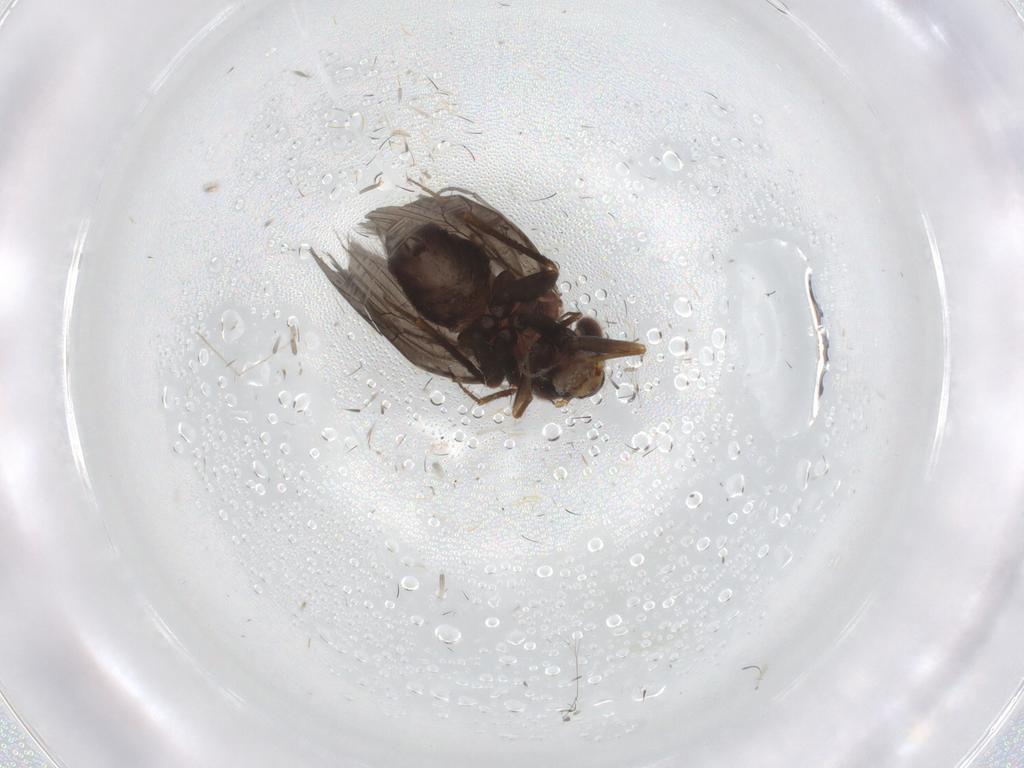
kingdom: Animalia
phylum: Arthropoda
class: Insecta
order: Psocodea
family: Lepidopsocidae
